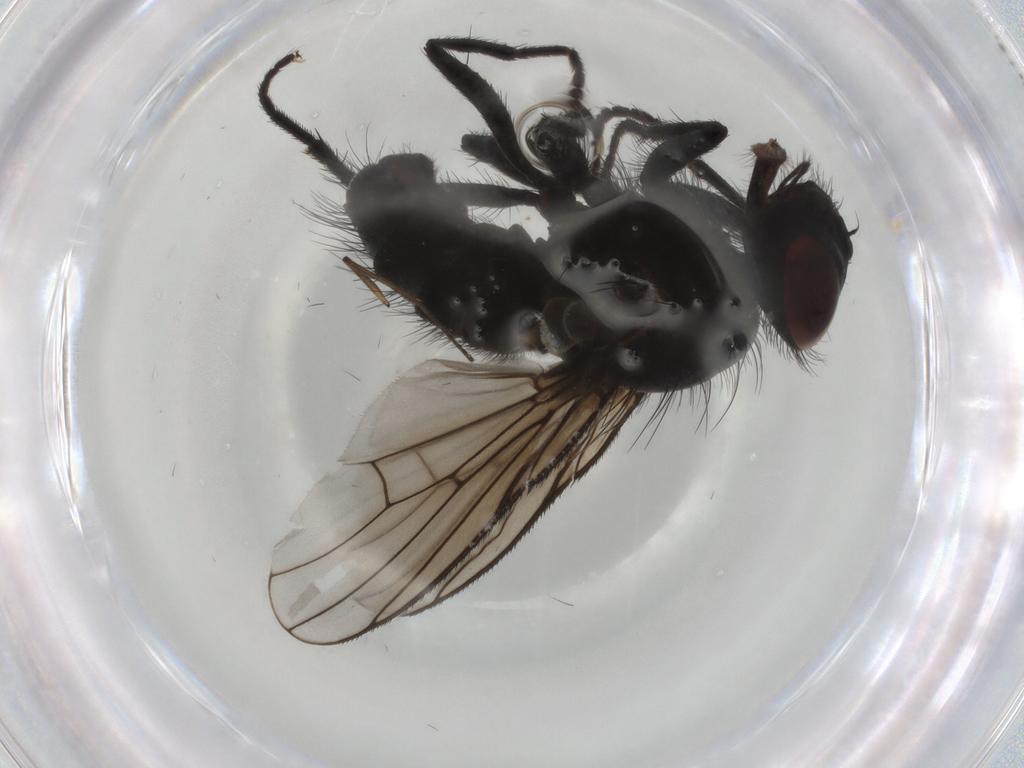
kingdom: Animalia
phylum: Arthropoda
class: Insecta
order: Diptera
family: Muscidae
